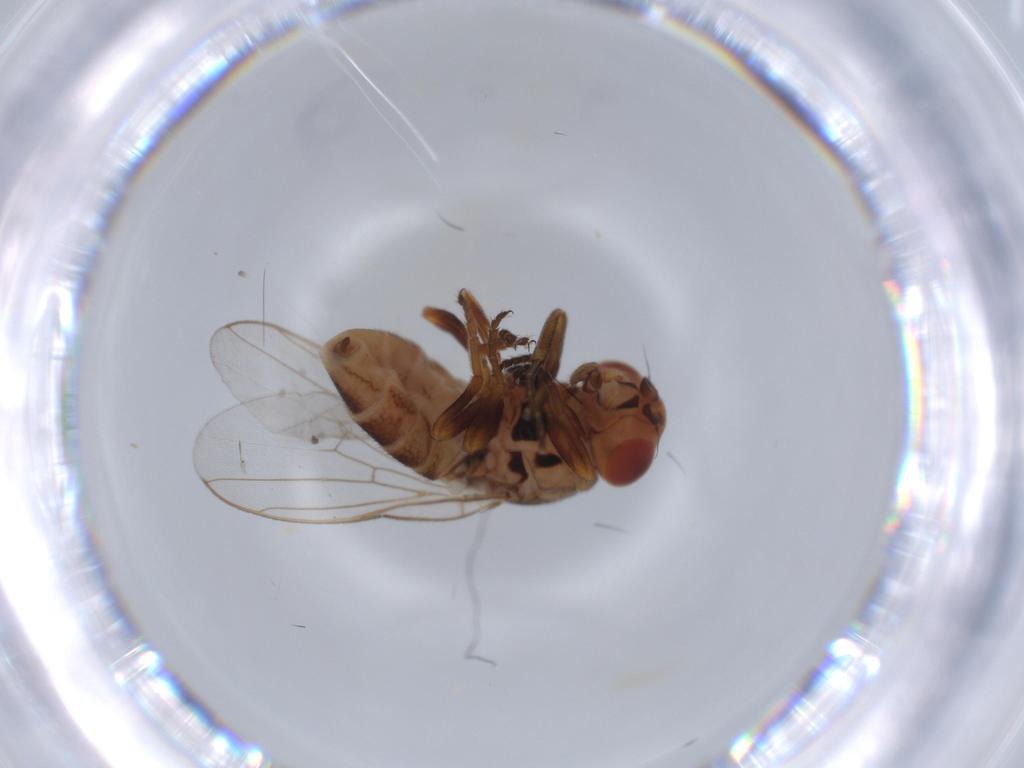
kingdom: Animalia
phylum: Arthropoda
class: Insecta
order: Diptera
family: Chloropidae
